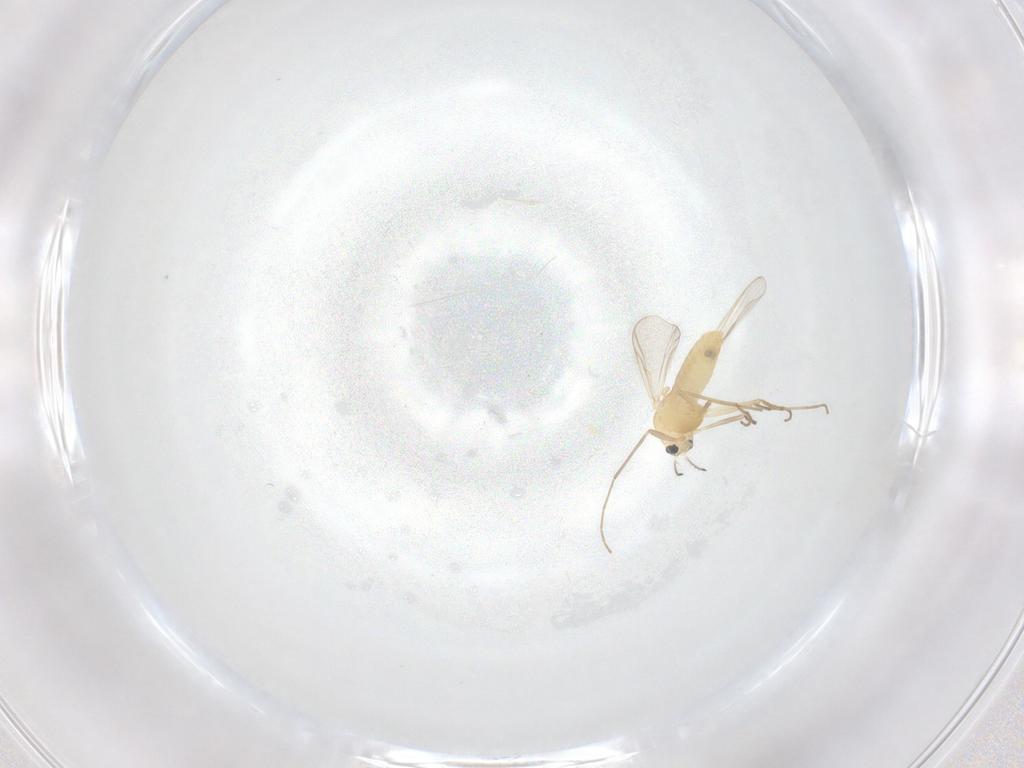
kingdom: Animalia
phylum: Arthropoda
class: Insecta
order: Diptera
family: Chironomidae
